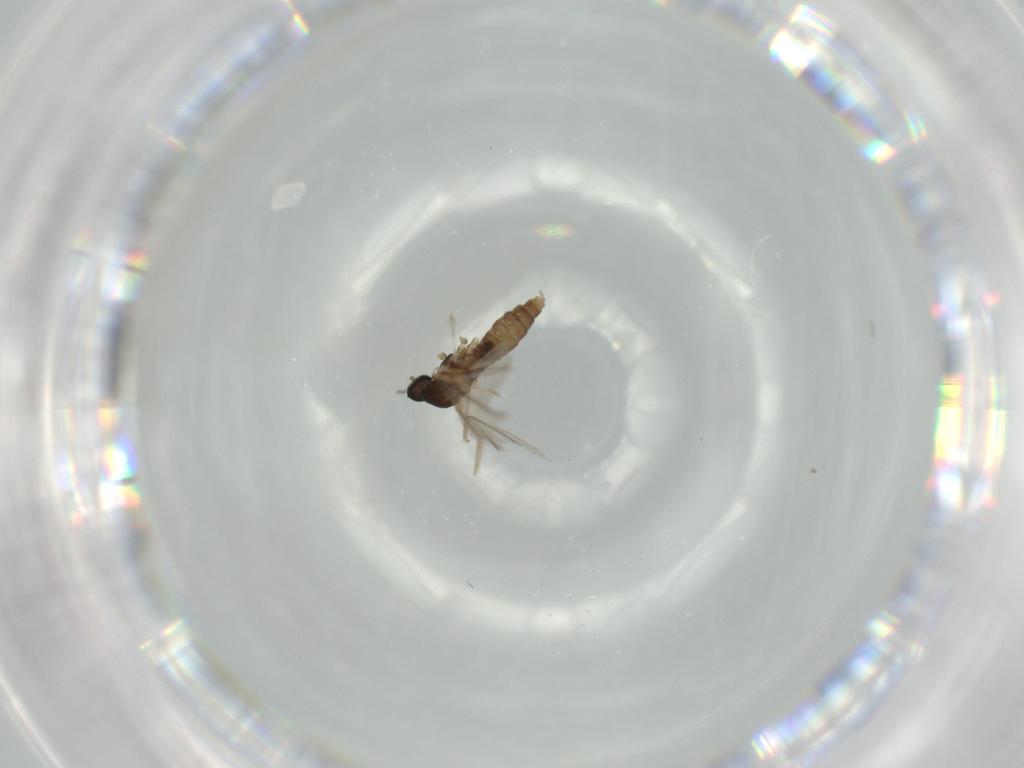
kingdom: Animalia
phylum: Arthropoda
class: Insecta
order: Diptera
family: Cecidomyiidae
